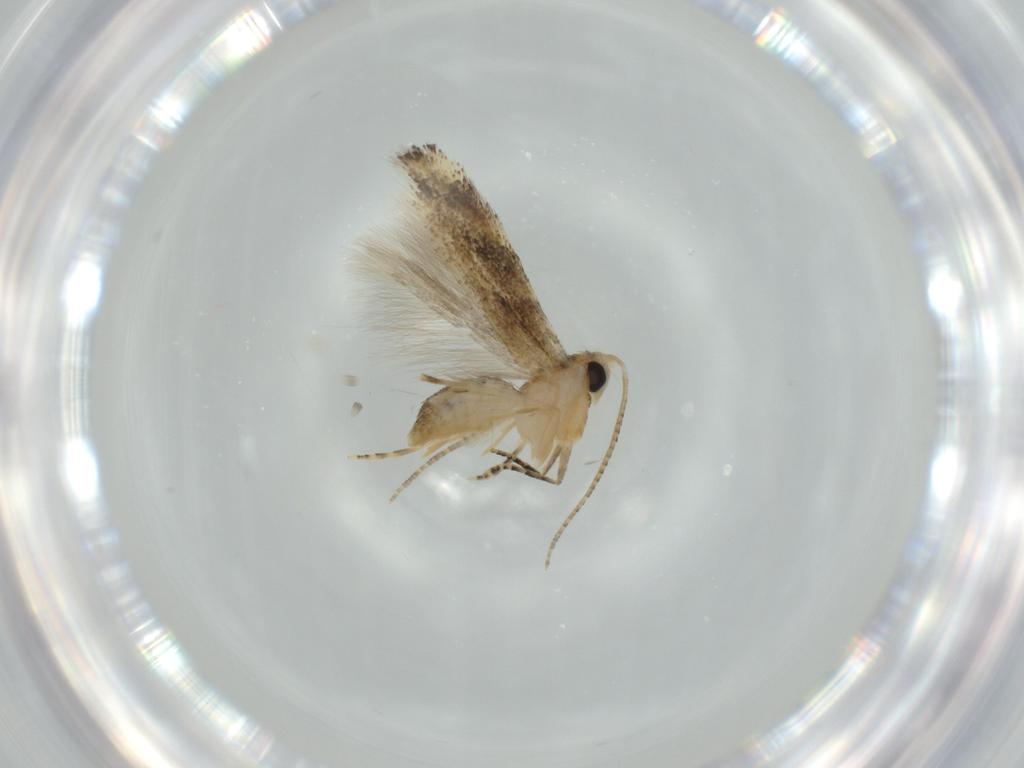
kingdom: Animalia
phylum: Arthropoda
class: Insecta
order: Lepidoptera
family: Bucculatricidae
